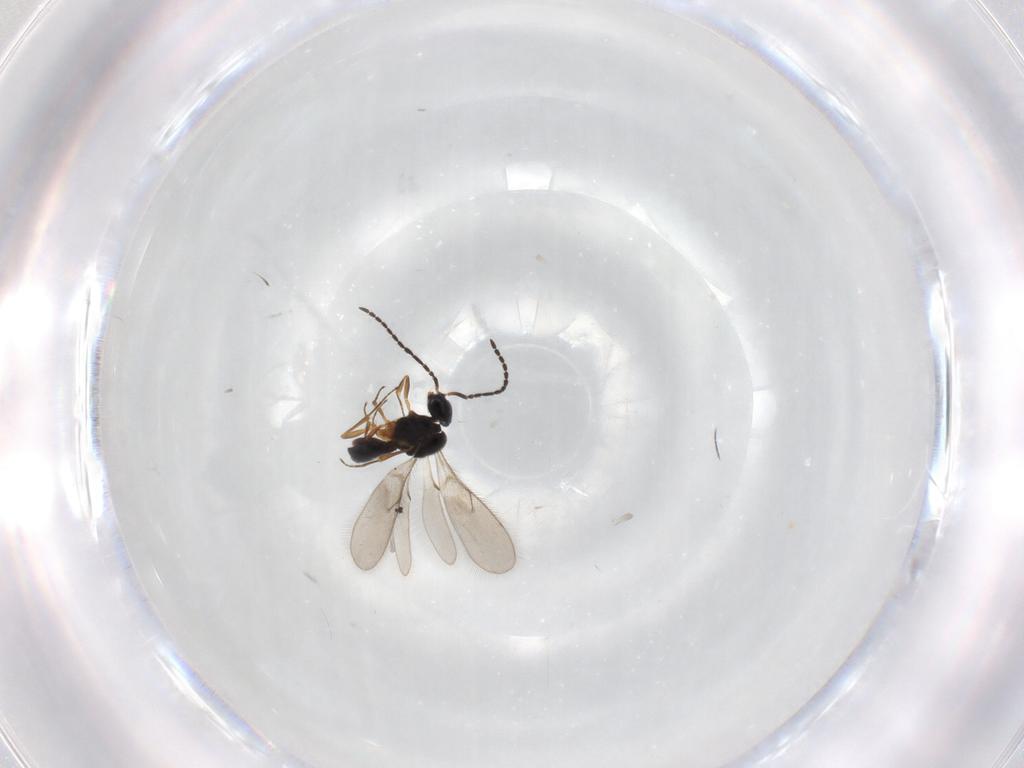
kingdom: Animalia
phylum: Arthropoda
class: Insecta
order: Hymenoptera
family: Scelionidae
